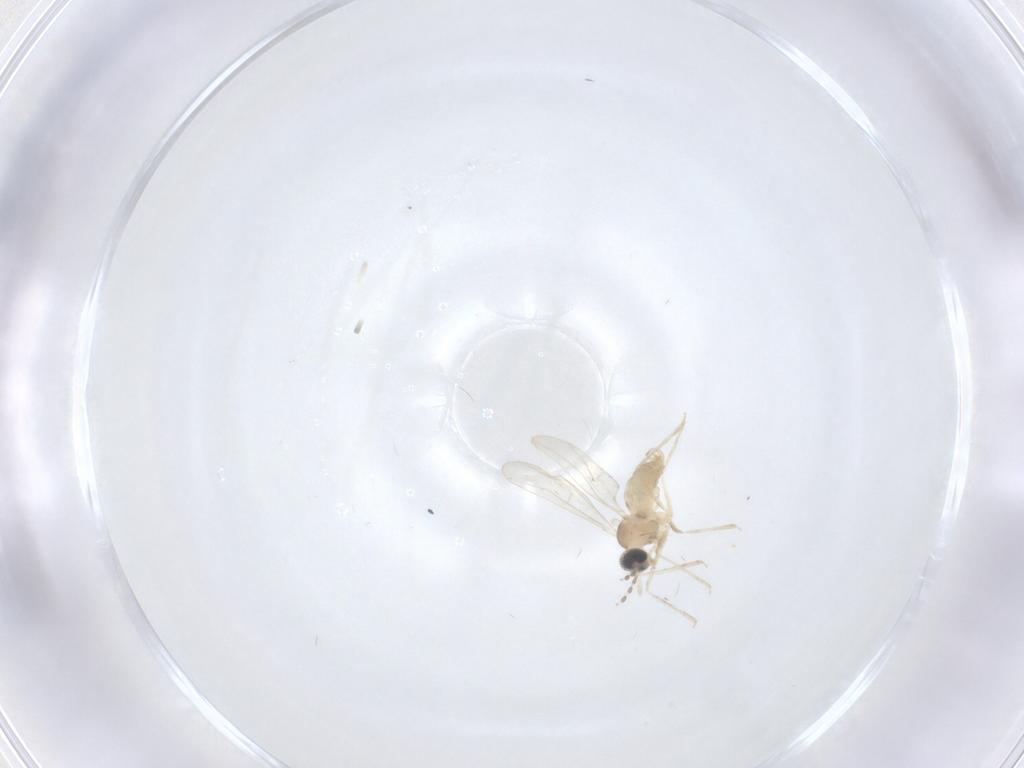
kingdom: Animalia
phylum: Arthropoda
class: Insecta
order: Diptera
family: Cecidomyiidae
